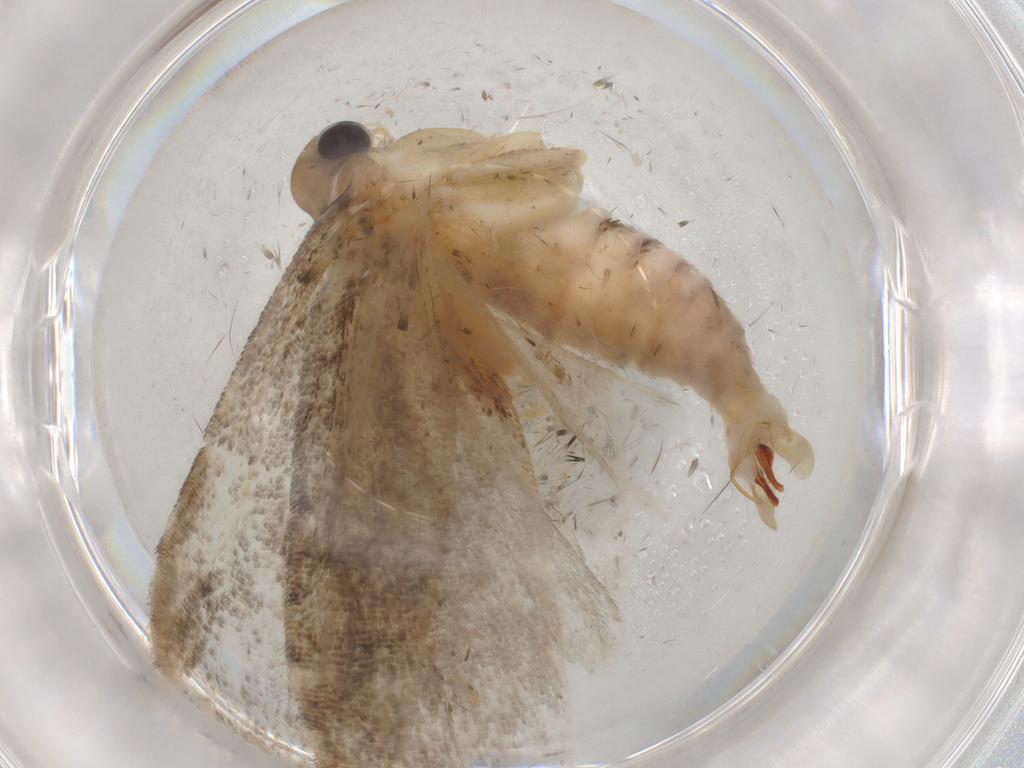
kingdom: Animalia
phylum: Arthropoda
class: Insecta
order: Lepidoptera
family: Carposinidae
